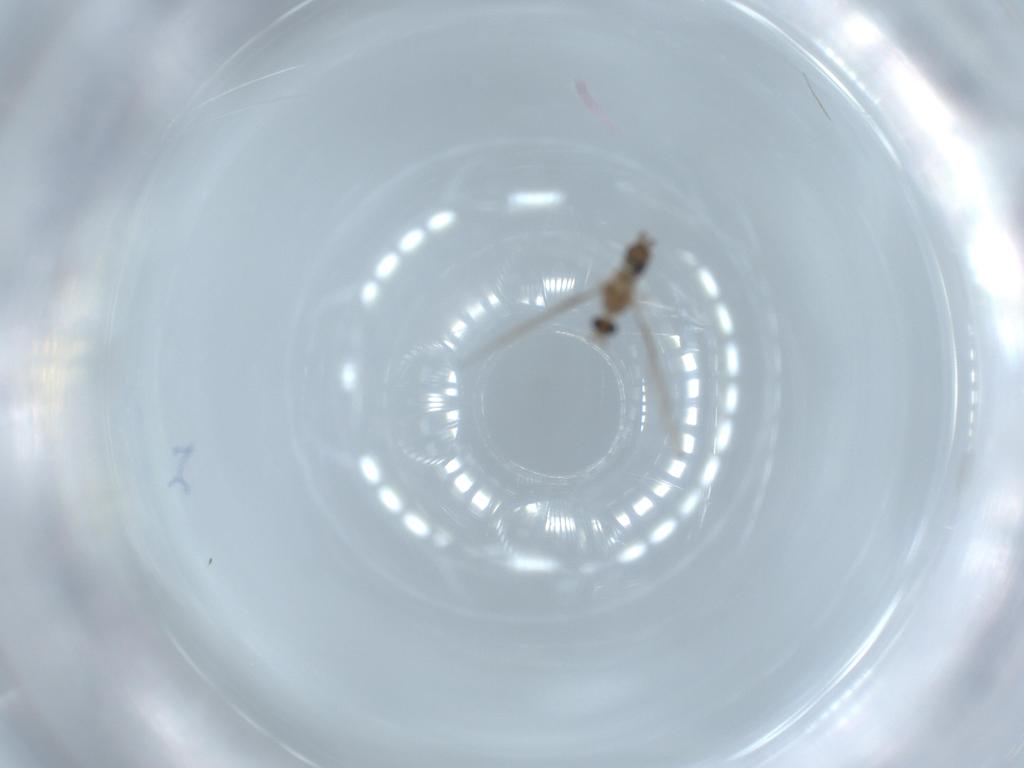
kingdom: Animalia
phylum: Arthropoda
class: Insecta
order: Diptera
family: Cecidomyiidae
